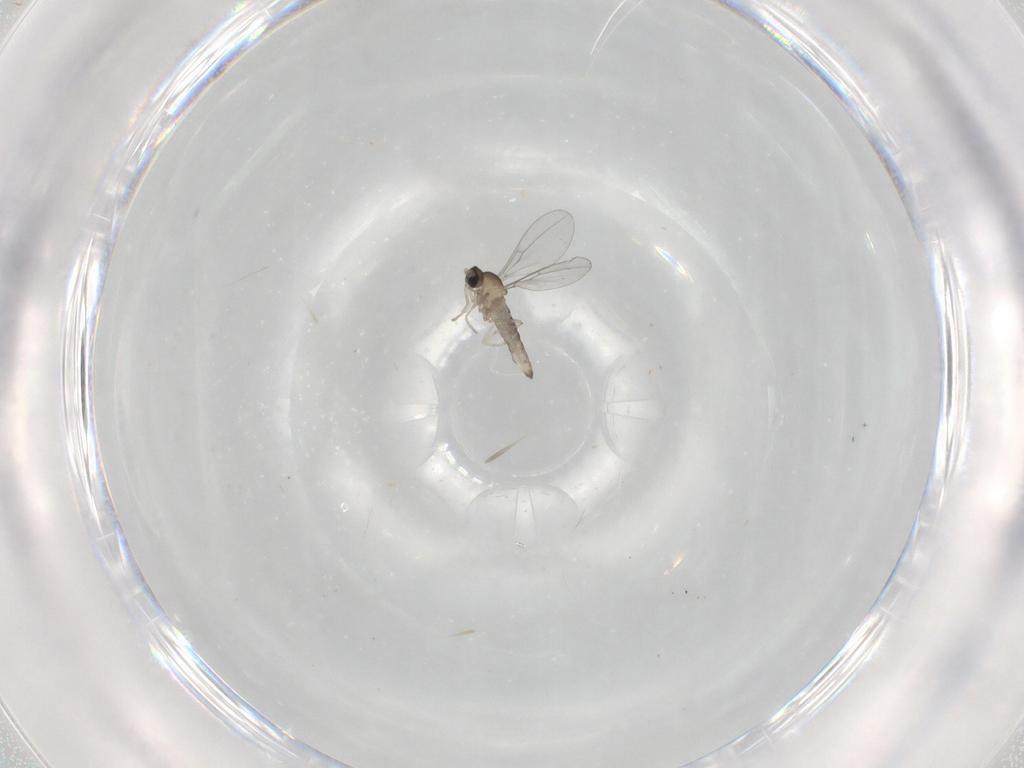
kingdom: Animalia
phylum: Arthropoda
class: Insecta
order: Diptera
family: Cecidomyiidae
